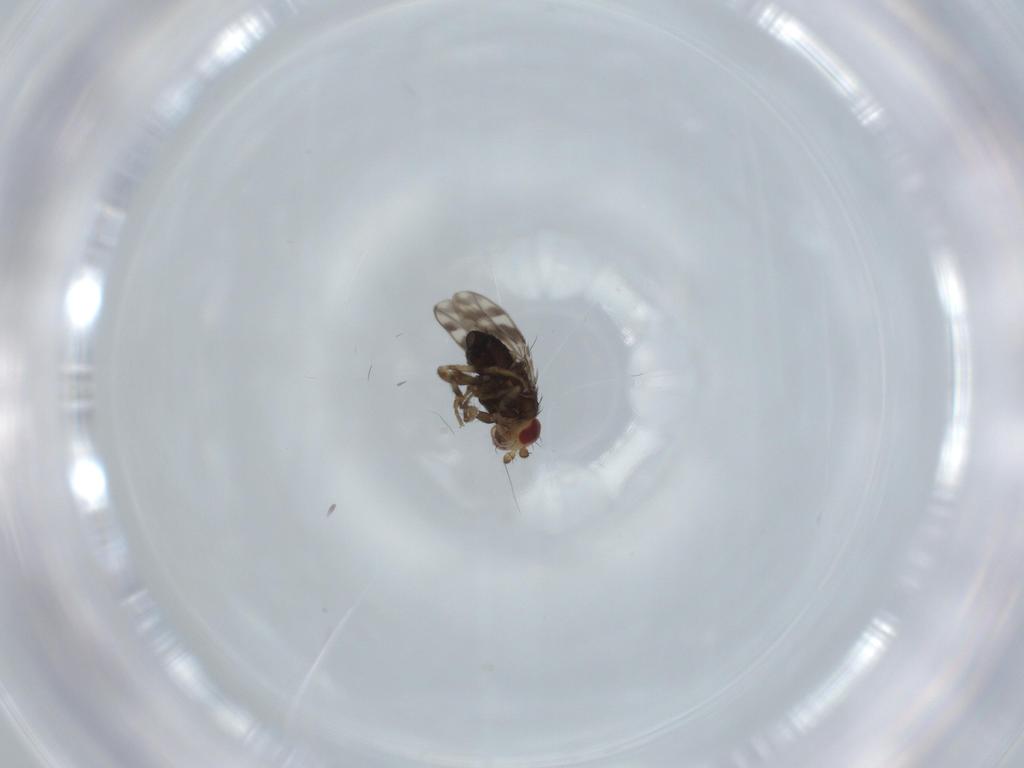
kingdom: Animalia
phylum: Arthropoda
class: Insecta
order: Diptera
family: Sphaeroceridae
